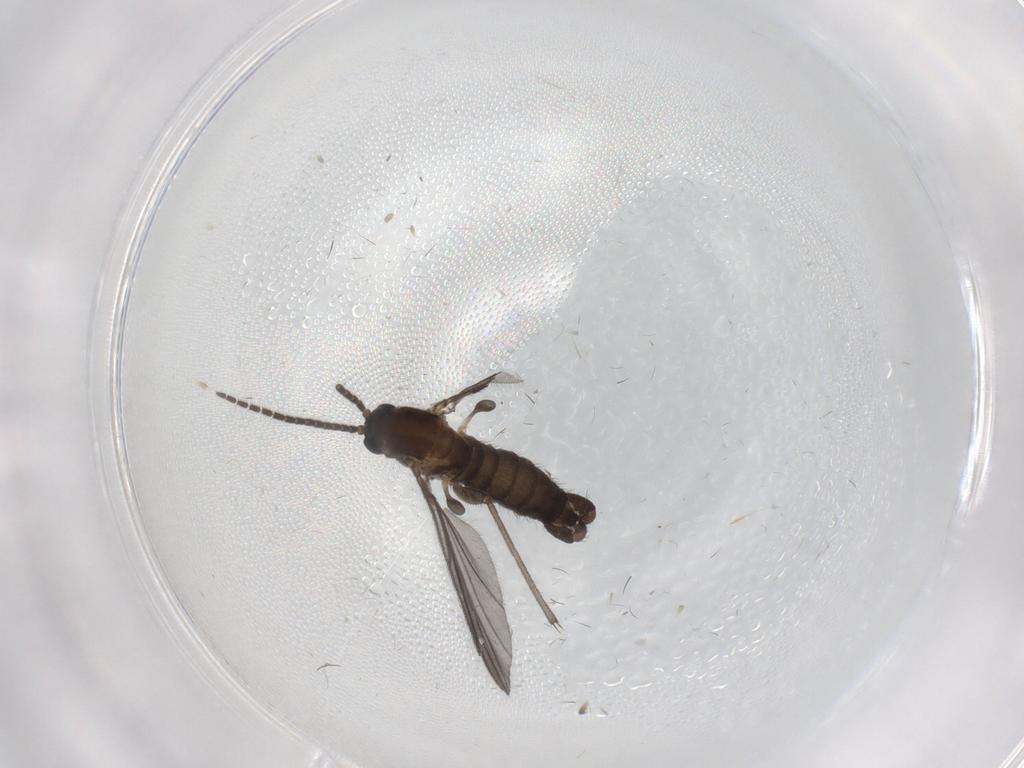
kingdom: Animalia
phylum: Arthropoda
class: Insecta
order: Diptera
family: Sciaridae
